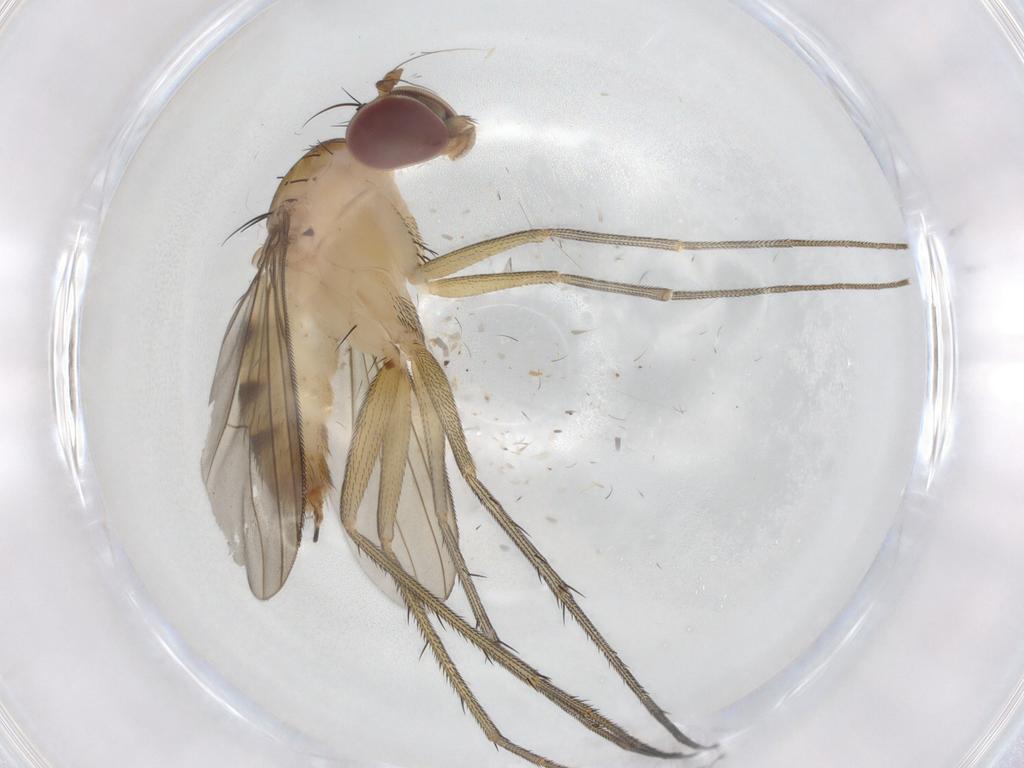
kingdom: Animalia
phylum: Arthropoda
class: Insecta
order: Diptera
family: Dolichopodidae
